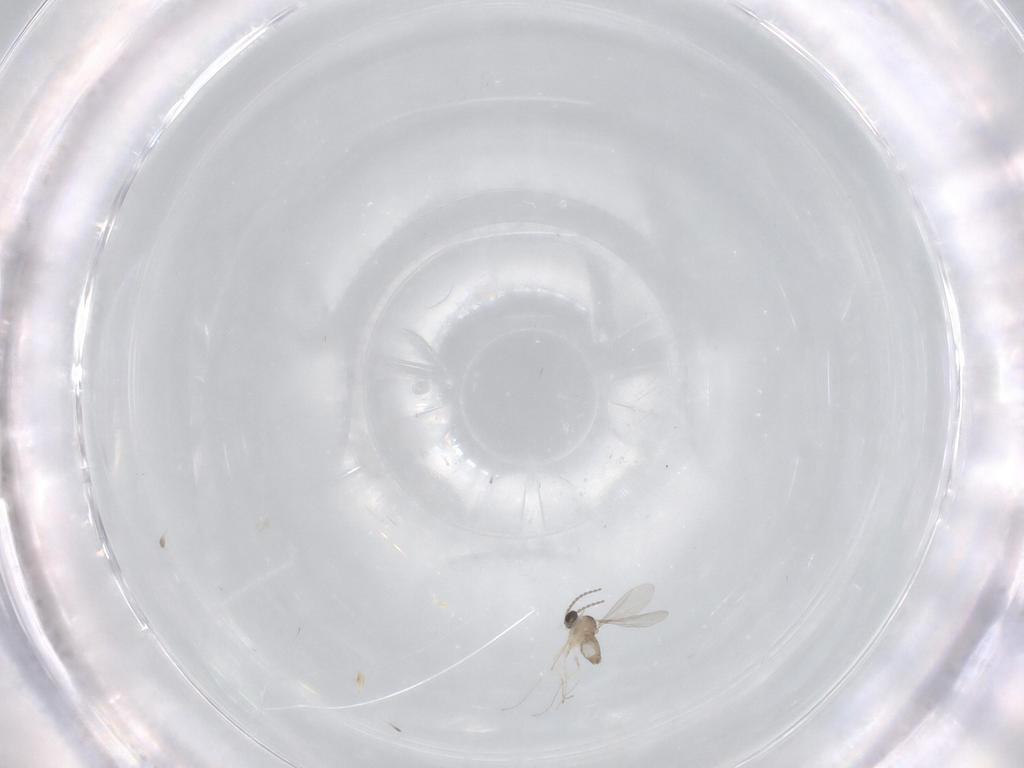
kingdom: Animalia
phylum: Arthropoda
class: Insecta
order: Diptera
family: Cecidomyiidae
